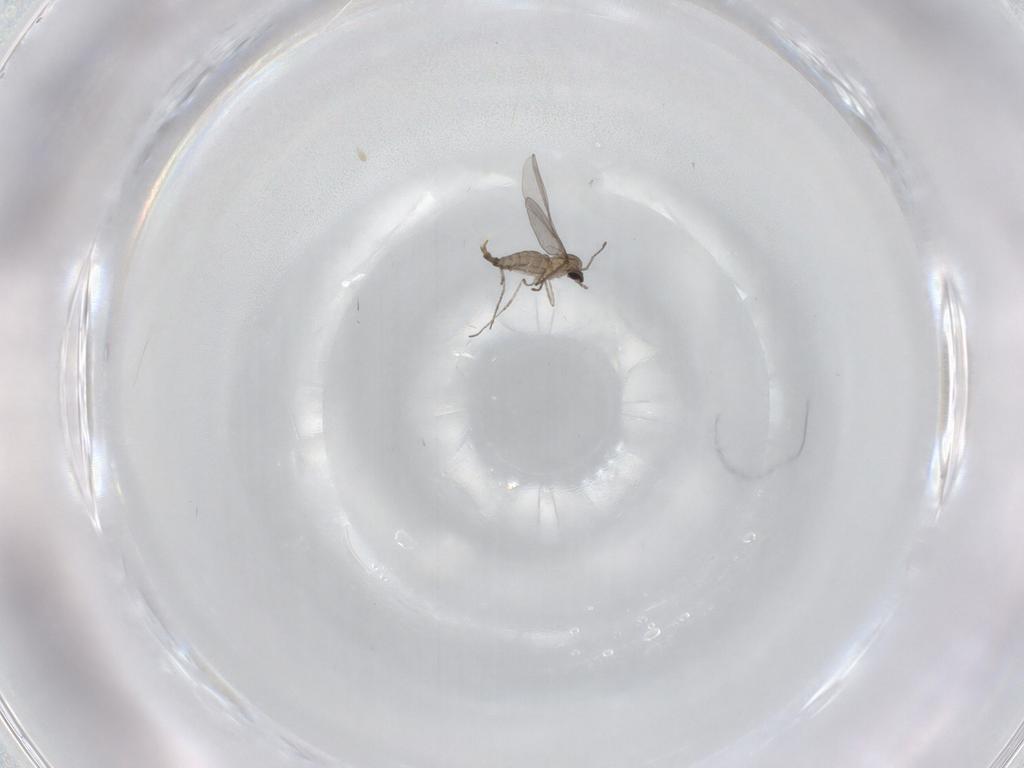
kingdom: Animalia
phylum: Arthropoda
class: Insecta
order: Diptera
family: Cecidomyiidae
